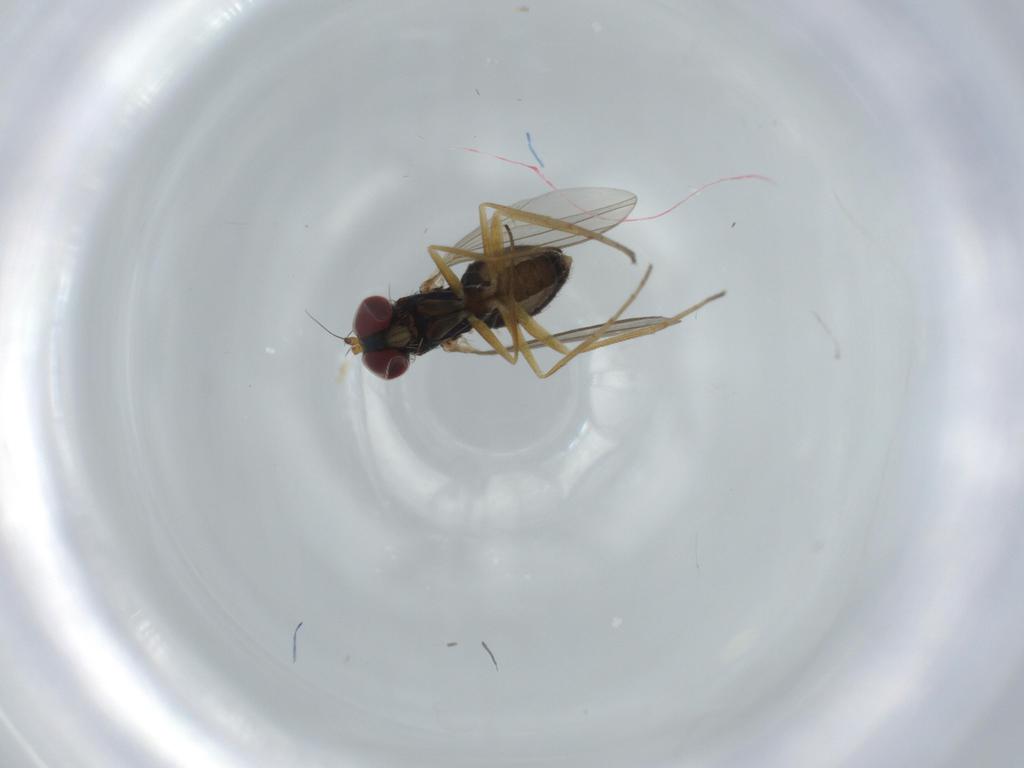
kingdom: Animalia
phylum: Arthropoda
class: Insecta
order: Diptera
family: Dolichopodidae
